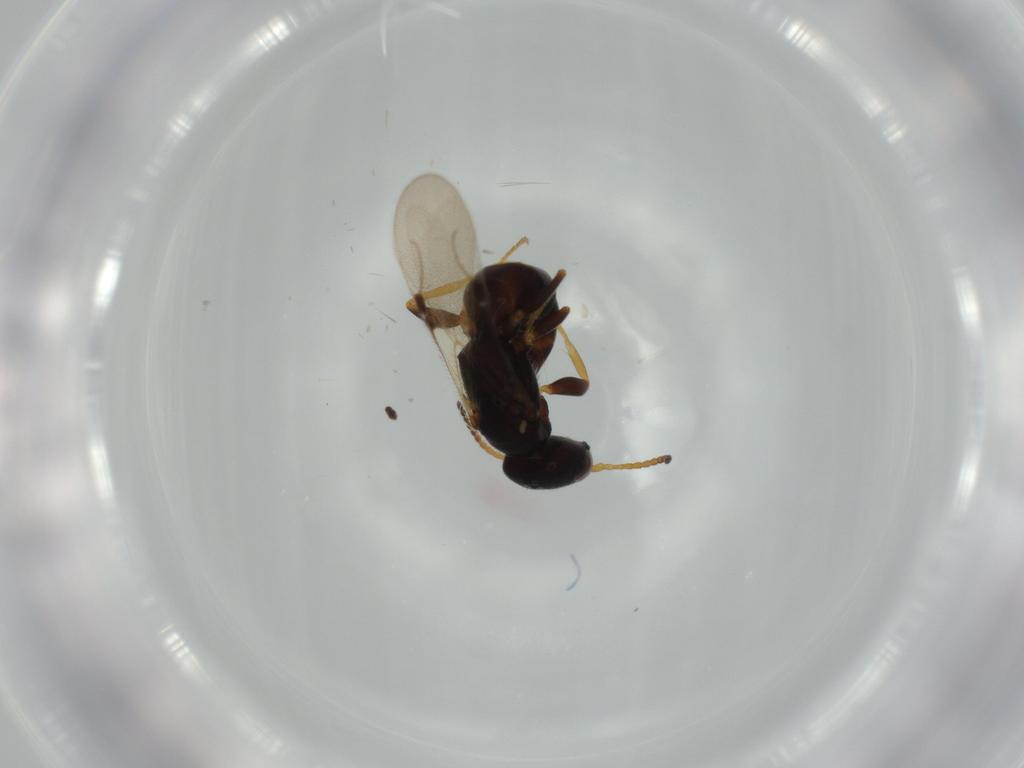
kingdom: Animalia
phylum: Arthropoda
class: Insecta
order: Hymenoptera
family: Bethylidae
